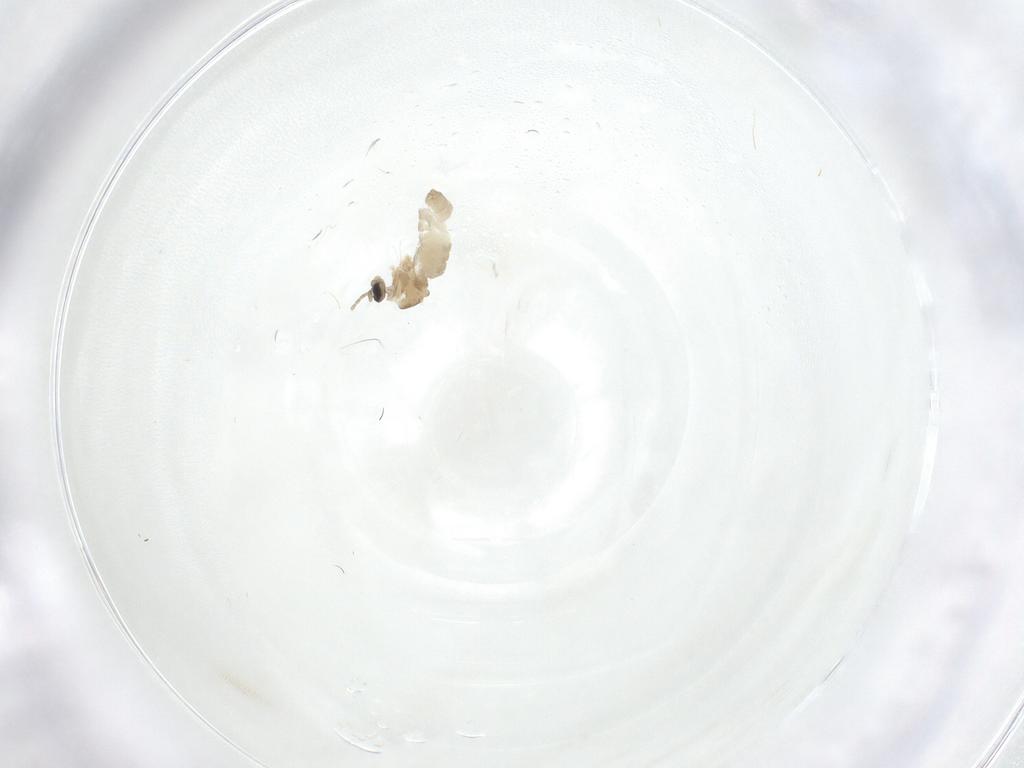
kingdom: Animalia
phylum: Arthropoda
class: Insecta
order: Diptera
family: Cecidomyiidae
